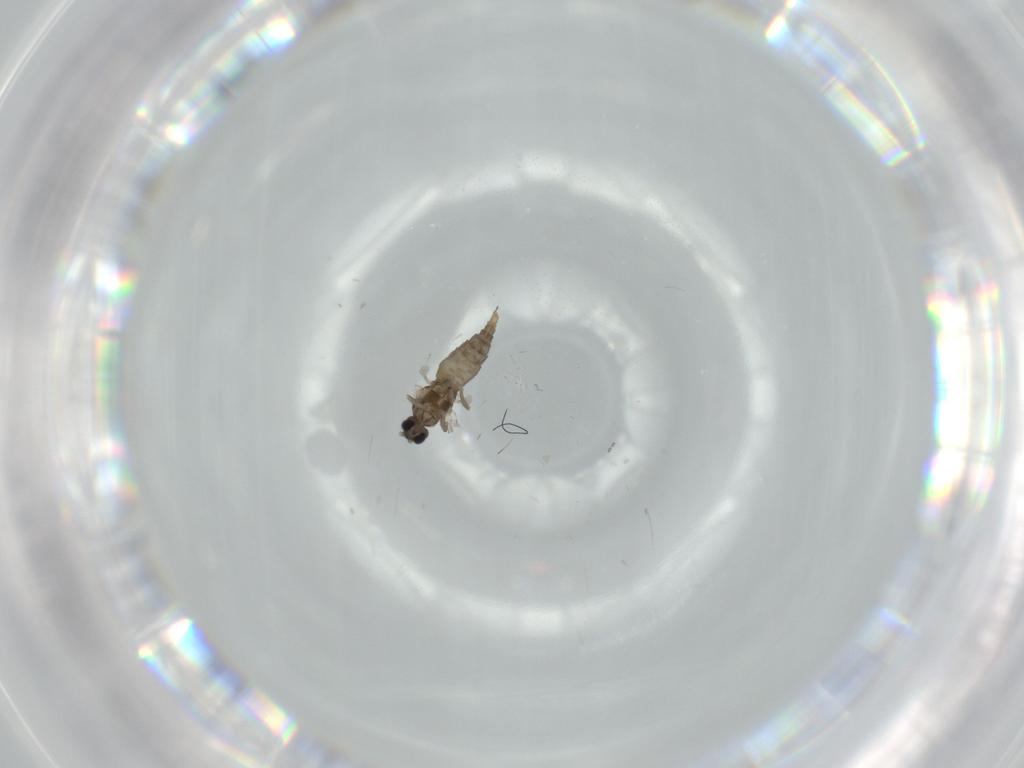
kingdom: Animalia
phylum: Arthropoda
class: Insecta
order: Diptera
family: Cecidomyiidae
